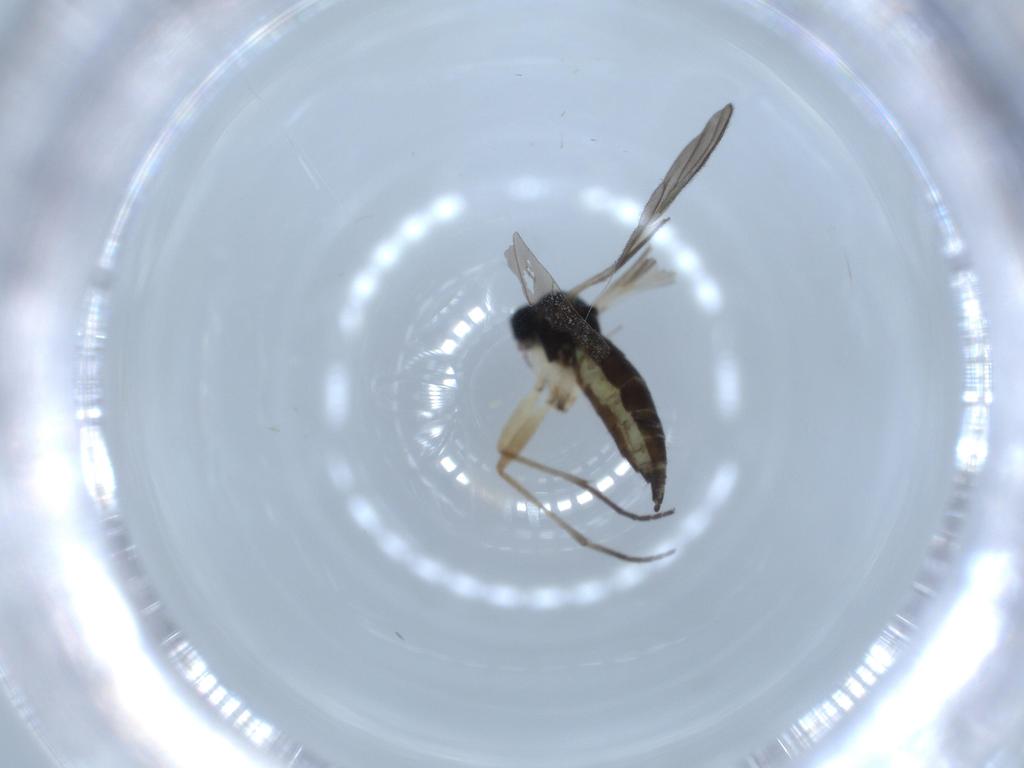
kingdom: Animalia
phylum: Arthropoda
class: Insecta
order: Diptera
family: Sciaridae
